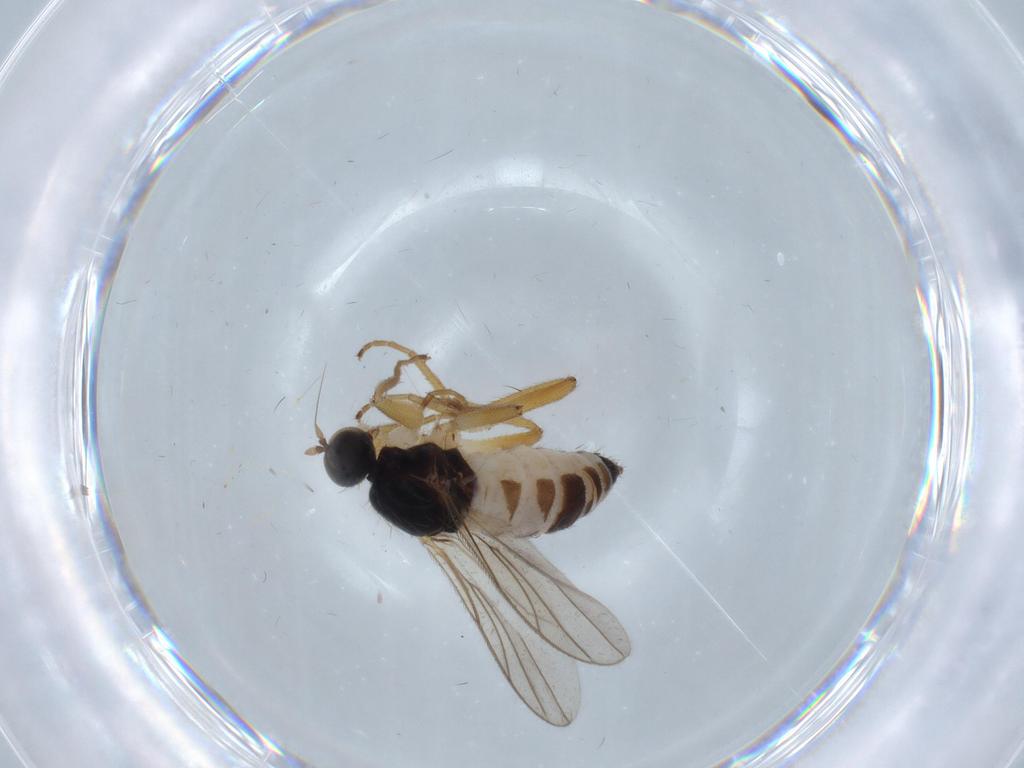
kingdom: Animalia
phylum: Arthropoda
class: Insecta
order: Diptera
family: Hybotidae
